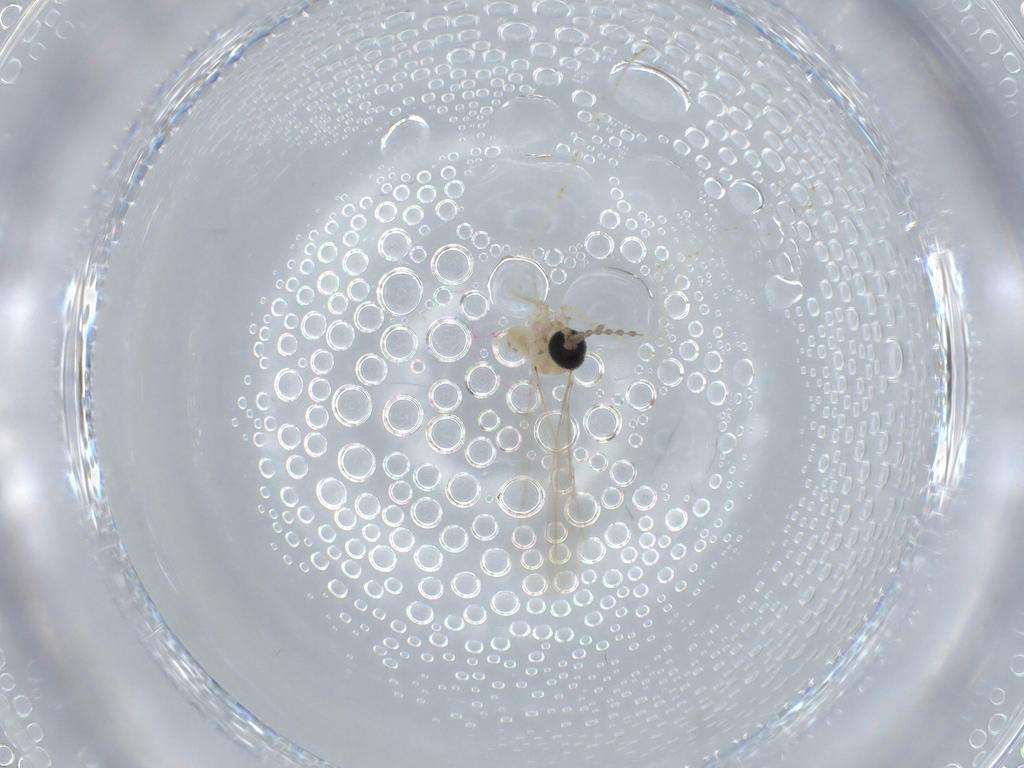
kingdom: Animalia
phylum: Arthropoda
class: Insecta
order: Diptera
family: Cecidomyiidae
